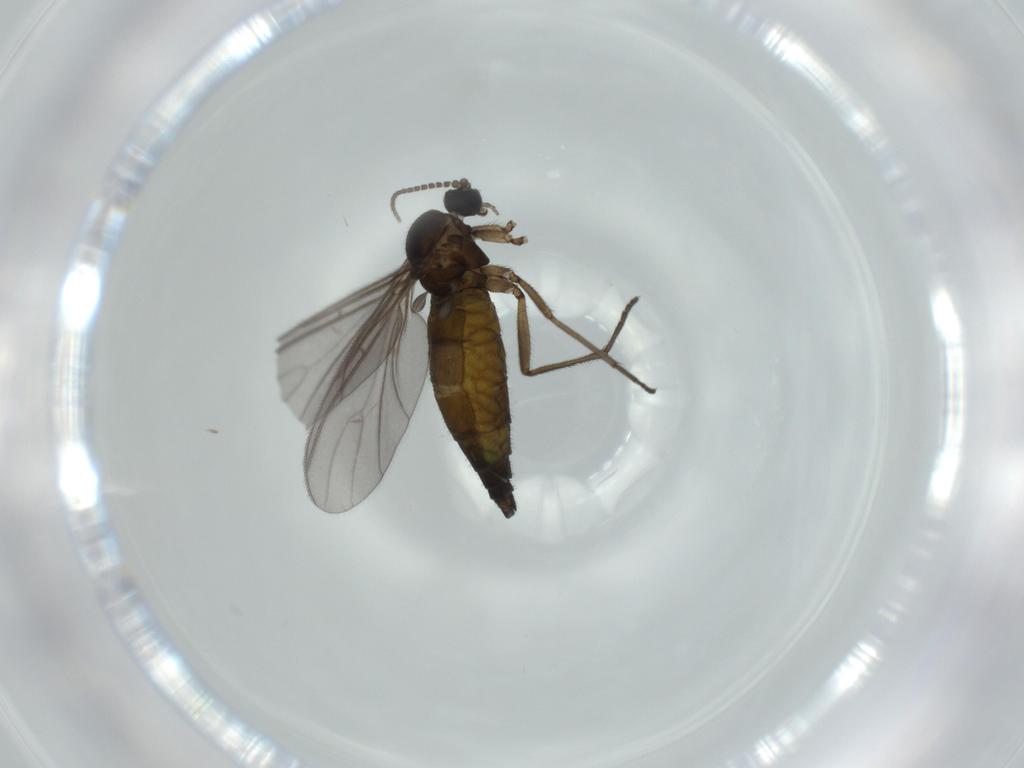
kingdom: Animalia
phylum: Arthropoda
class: Insecta
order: Diptera
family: Sciaridae
